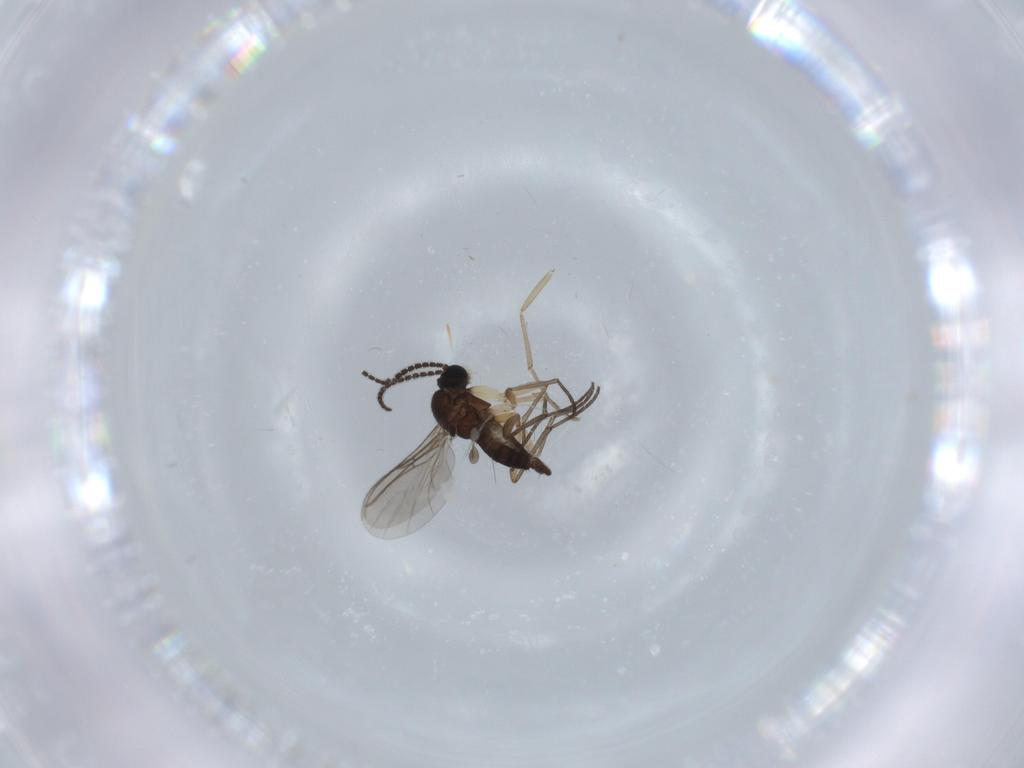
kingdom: Animalia
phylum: Arthropoda
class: Insecta
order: Diptera
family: Sciaridae
